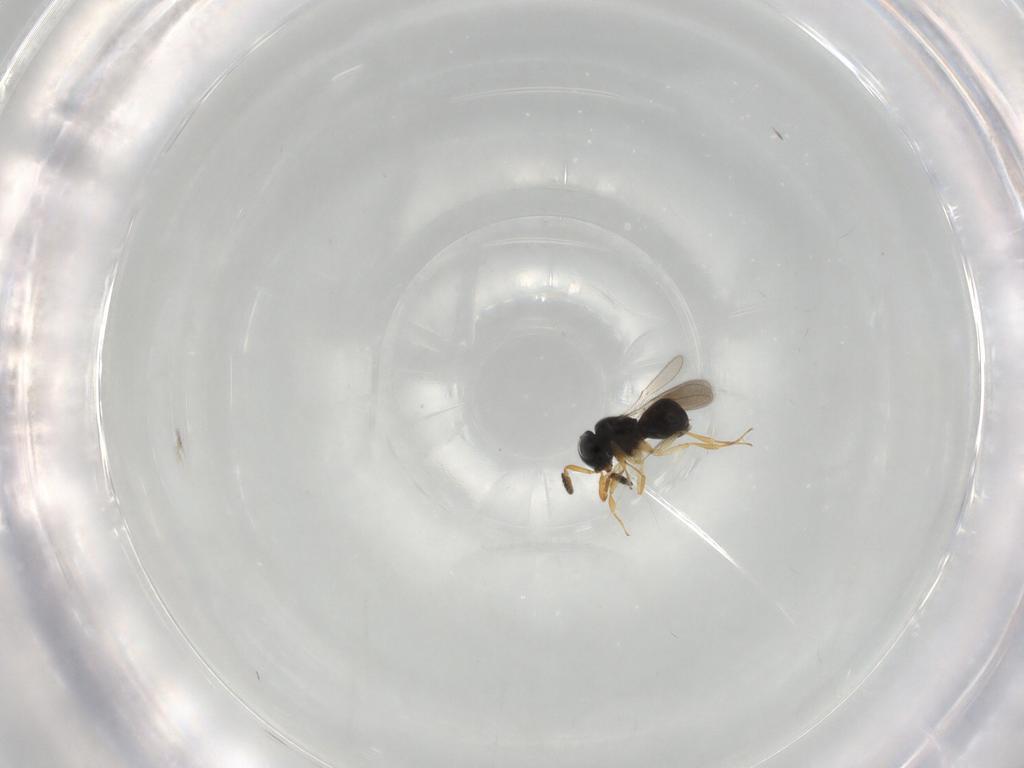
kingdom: Animalia
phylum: Arthropoda
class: Insecta
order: Hymenoptera
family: Scelionidae
